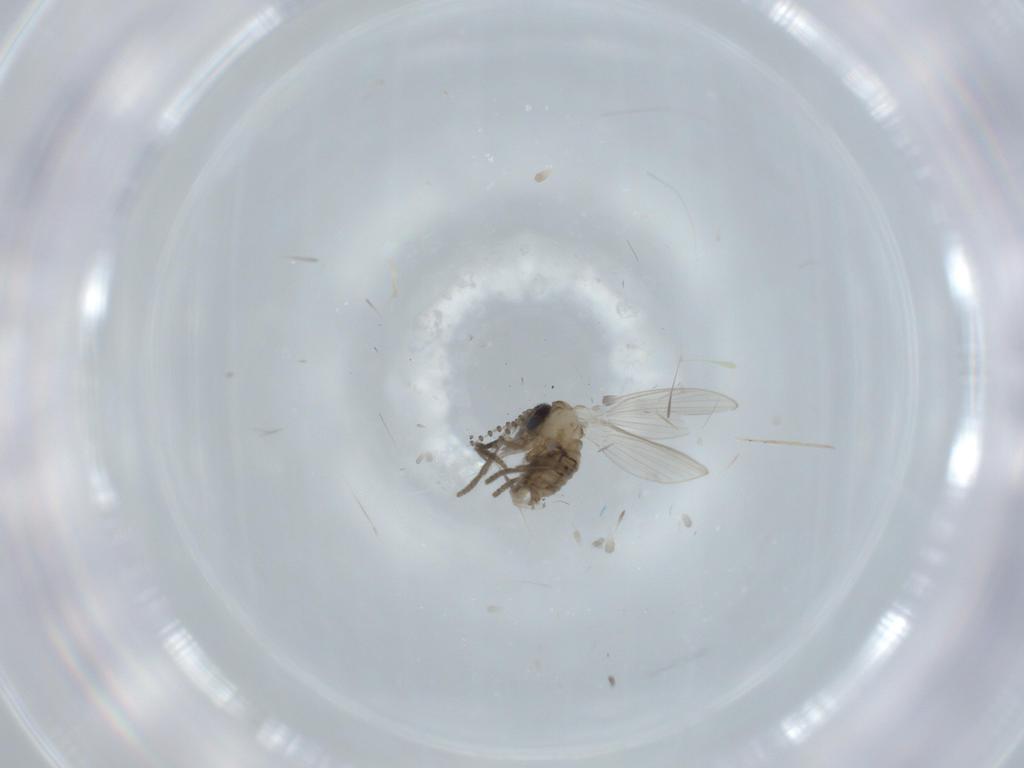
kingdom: Animalia
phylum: Arthropoda
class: Insecta
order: Diptera
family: Psychodidae
